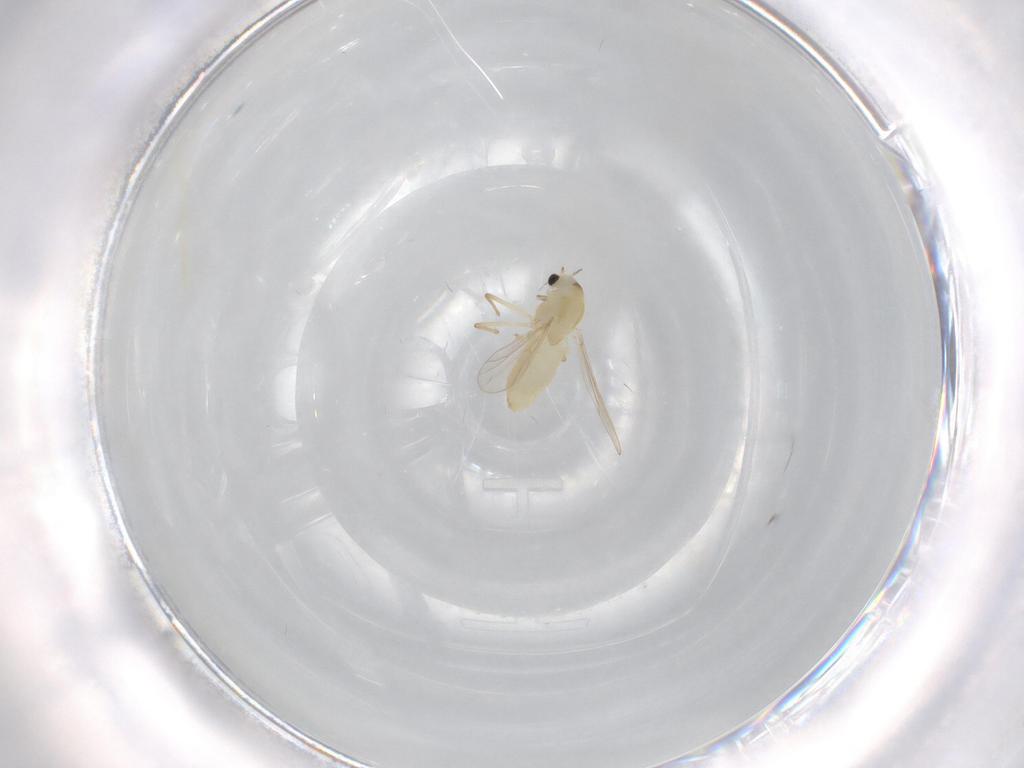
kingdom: Animalia
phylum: Arthropoda
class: Insecta
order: Diptera
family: Chironomidae
